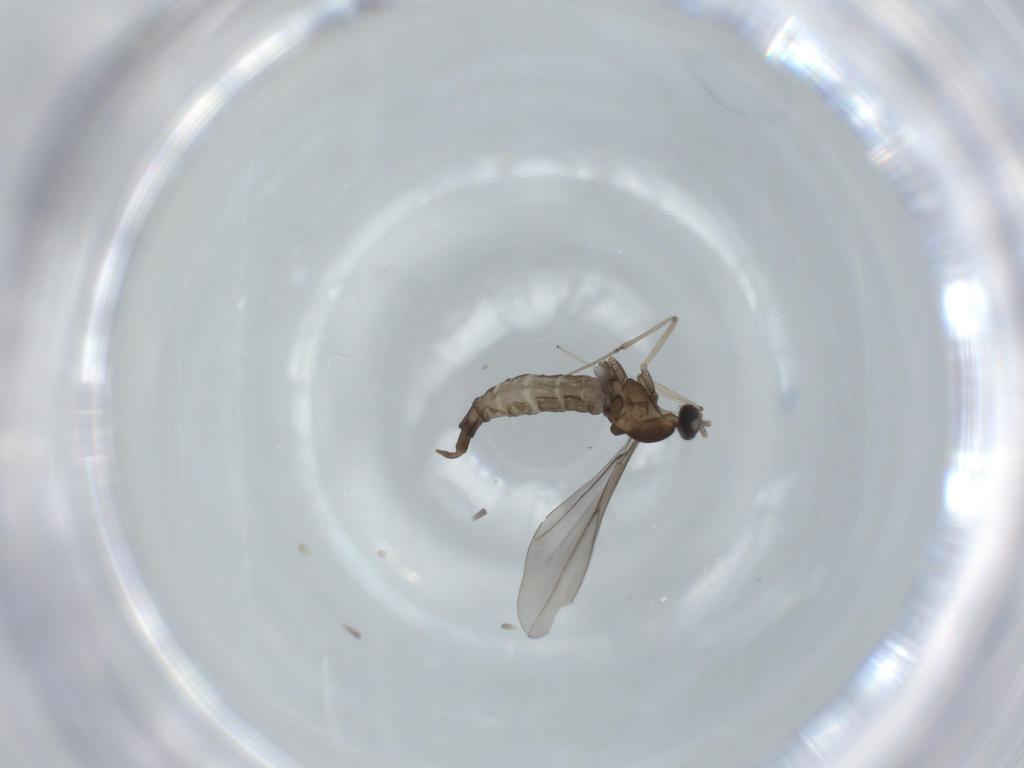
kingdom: Animalia
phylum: Arthropoda
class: Insecta
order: Diptera
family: Cecidomyiidae
